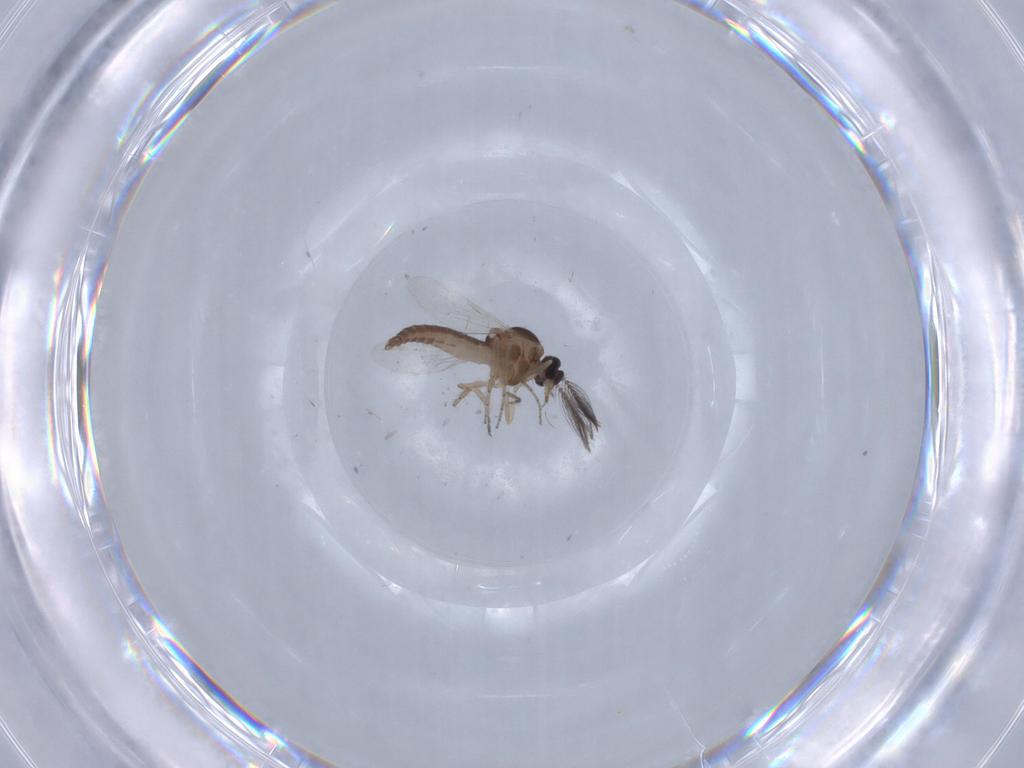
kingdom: Animalia
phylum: Arthropoda
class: Insecta
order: Diptera
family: Ceratopogonidae
